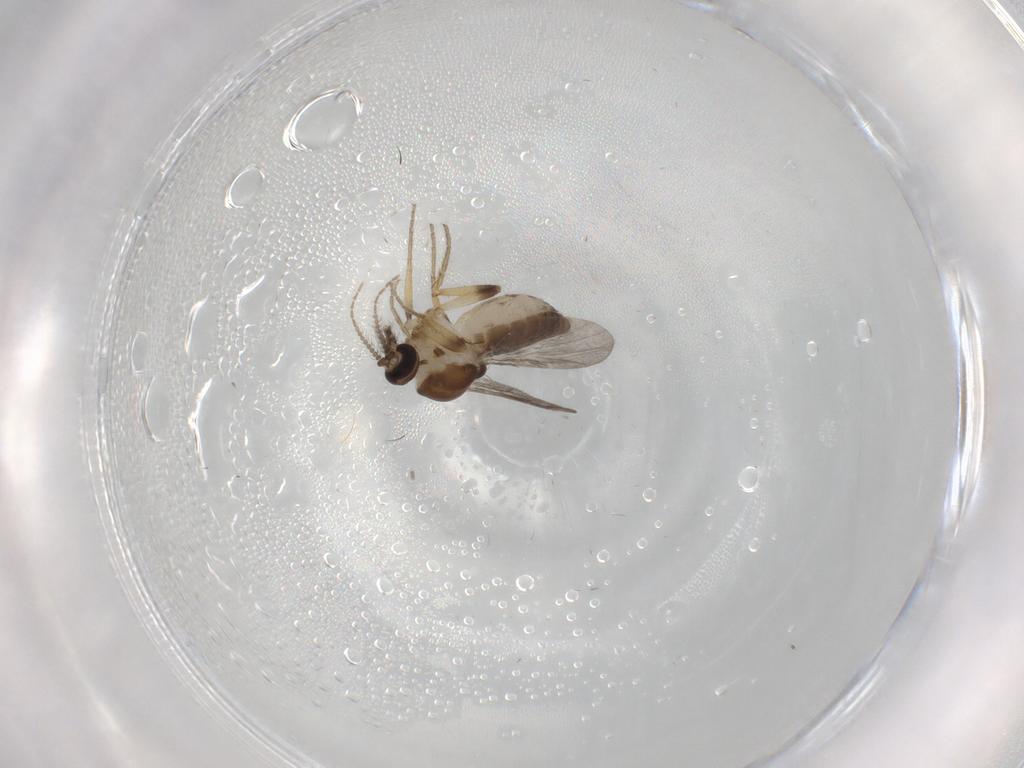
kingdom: Animalia
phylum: Arthropoda
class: Insecta
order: Diptera
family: Ceratopogonidae
